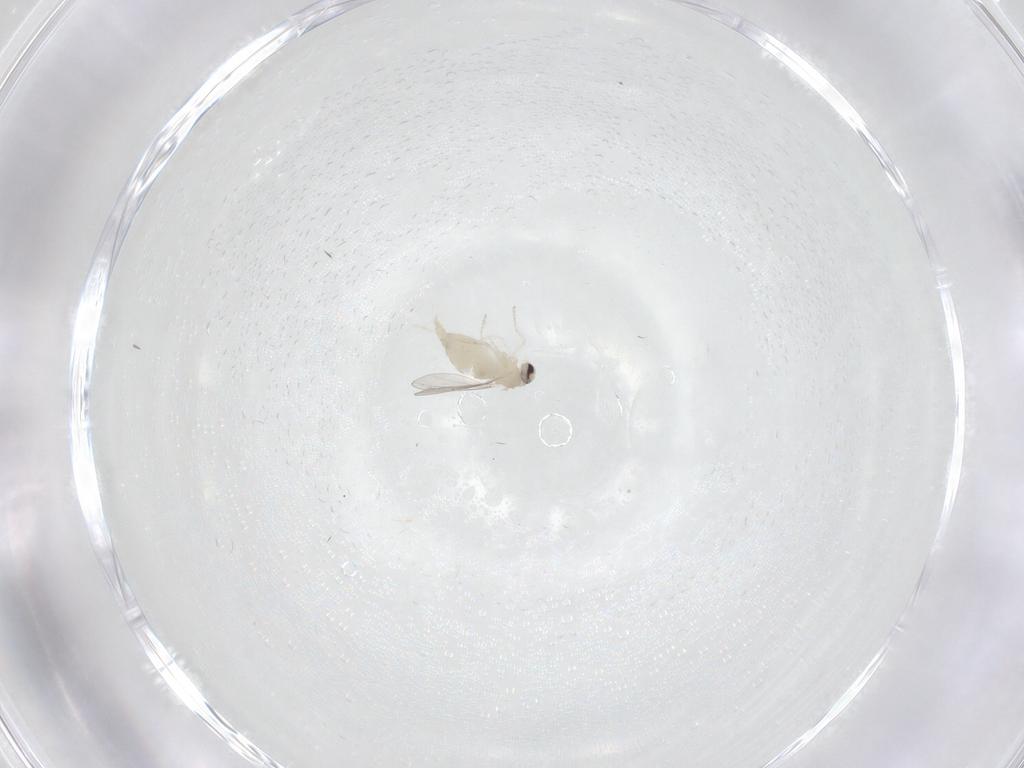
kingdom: Animalia
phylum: Arthropoda
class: Insecta
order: Diptera
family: Cecidomyiidae
